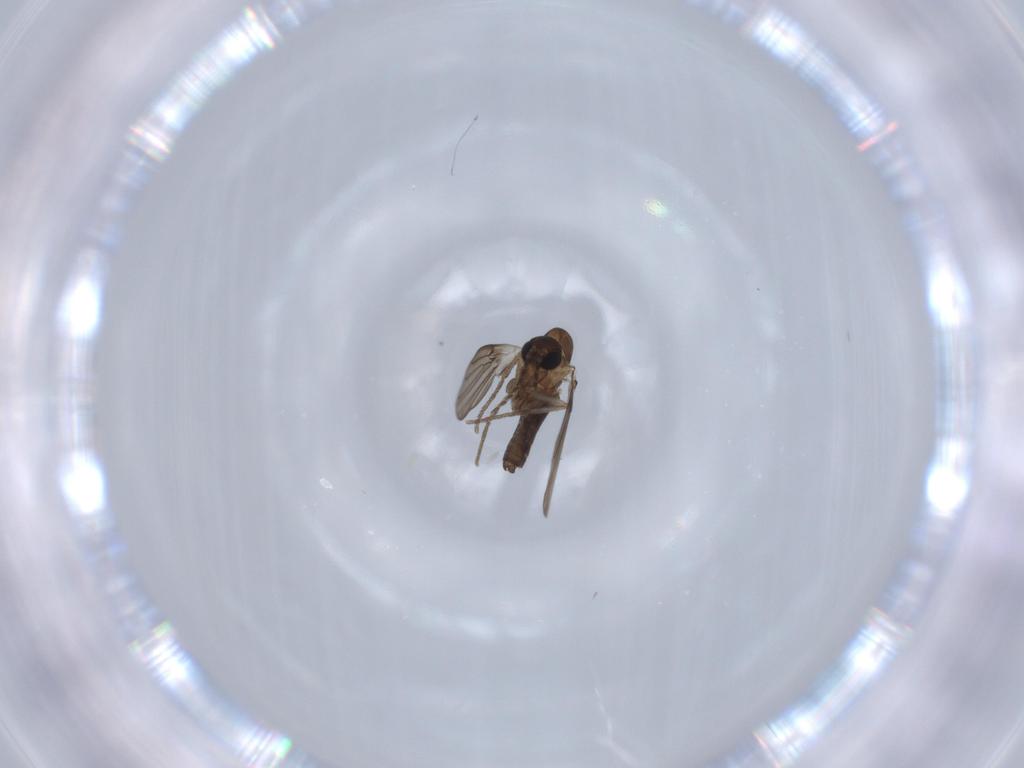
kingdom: Animalia
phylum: Arthropoda
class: Insecta
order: Diptera
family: Psychodidae
